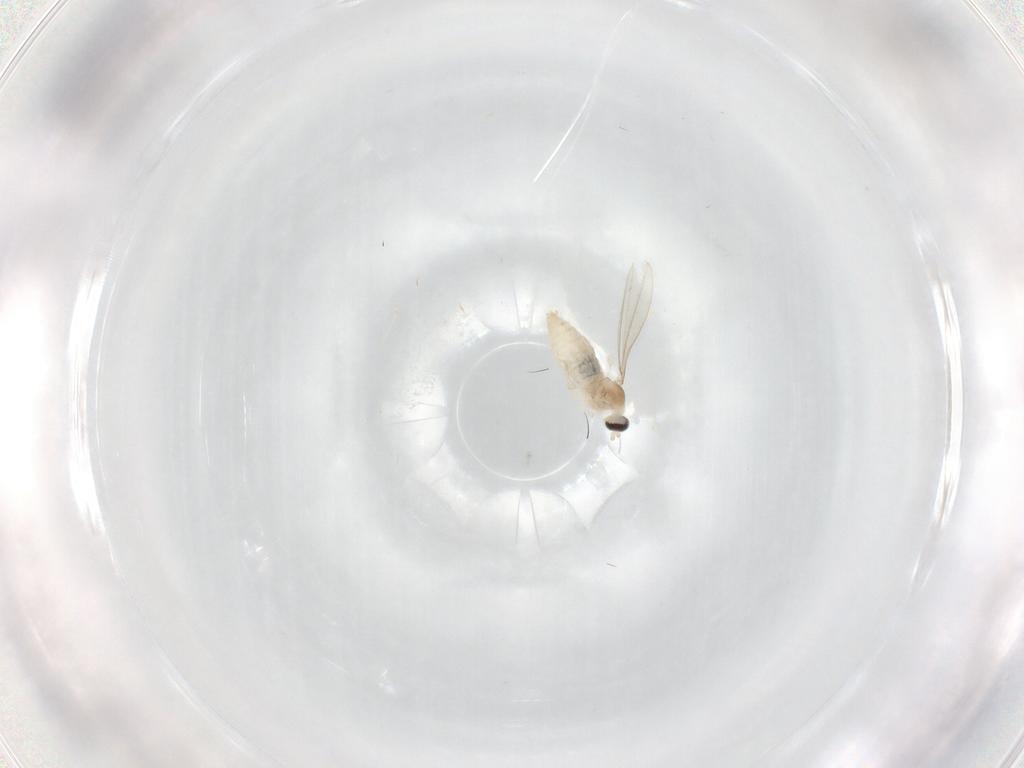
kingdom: Animalia
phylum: Arthropoda
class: Insecta
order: Diptera
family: Cecidomyiidae
